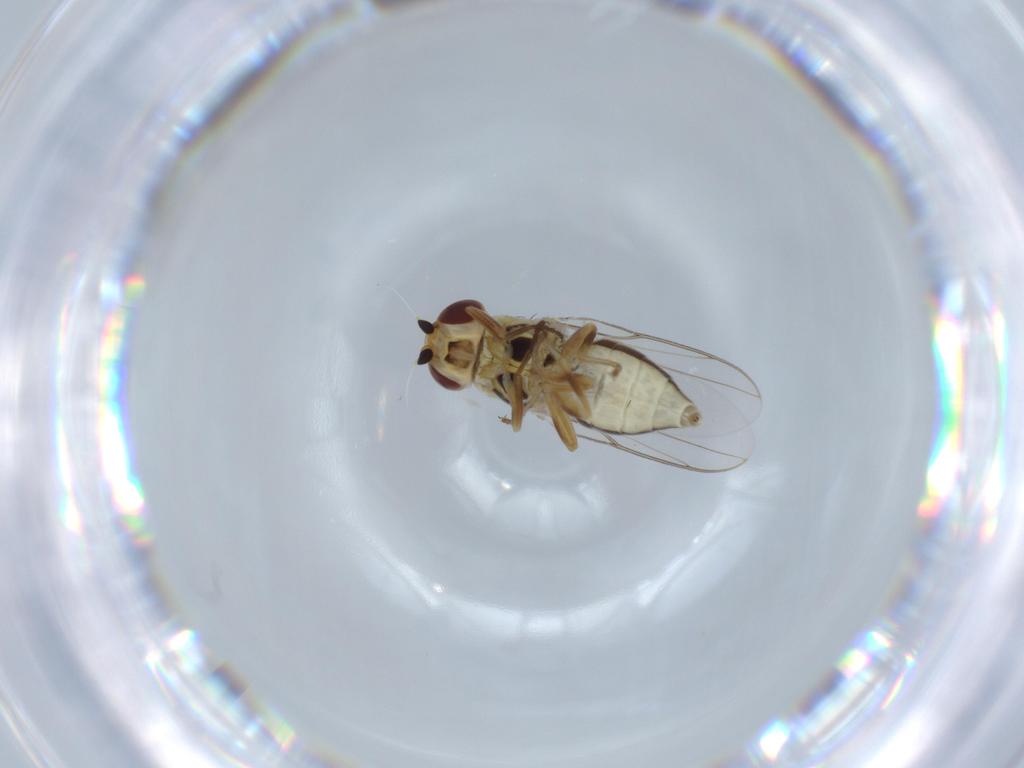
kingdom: Animalia
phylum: Arthropoda
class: Insecta
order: Diptera
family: Chloropidae
